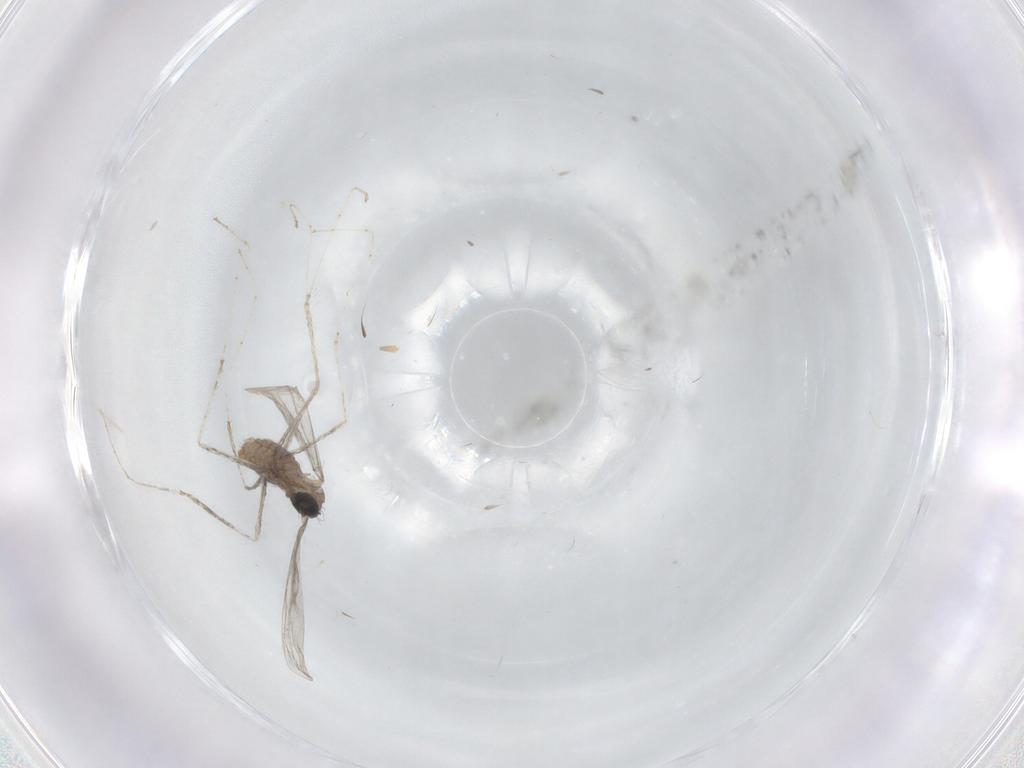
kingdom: Animalia
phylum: Arthropoda
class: Insecta
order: Diptera
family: Cecidomyiidae
